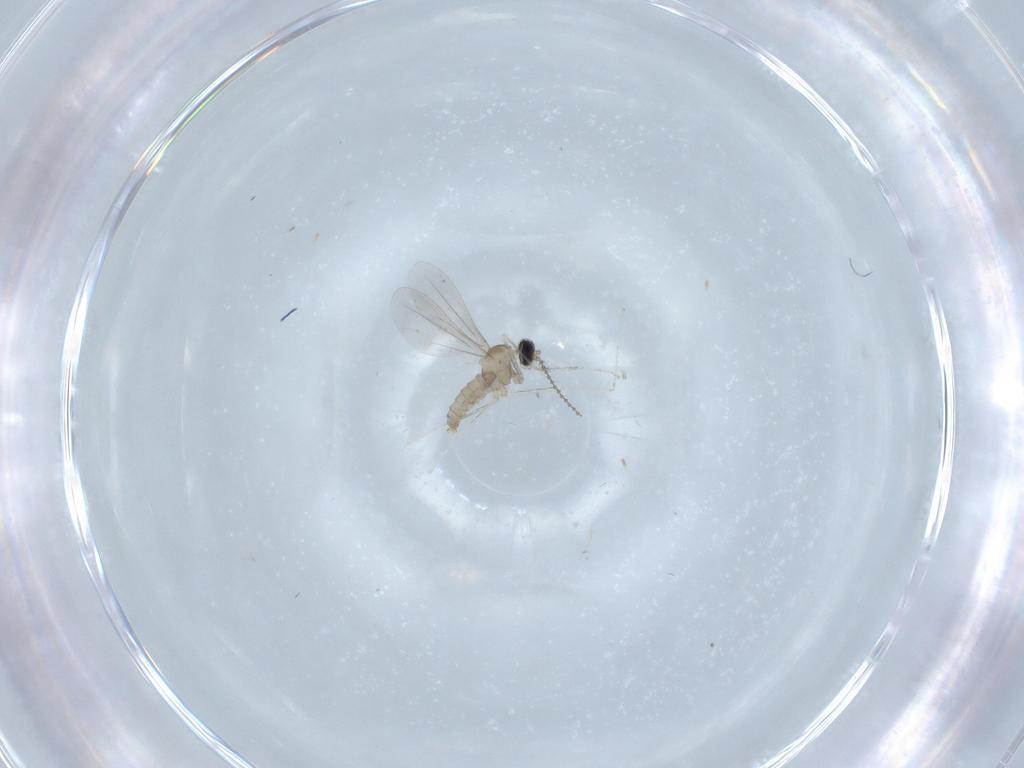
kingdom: Animalia
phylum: Arthropoda
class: Insecta
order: Diptera
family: Cecidomyiidae
